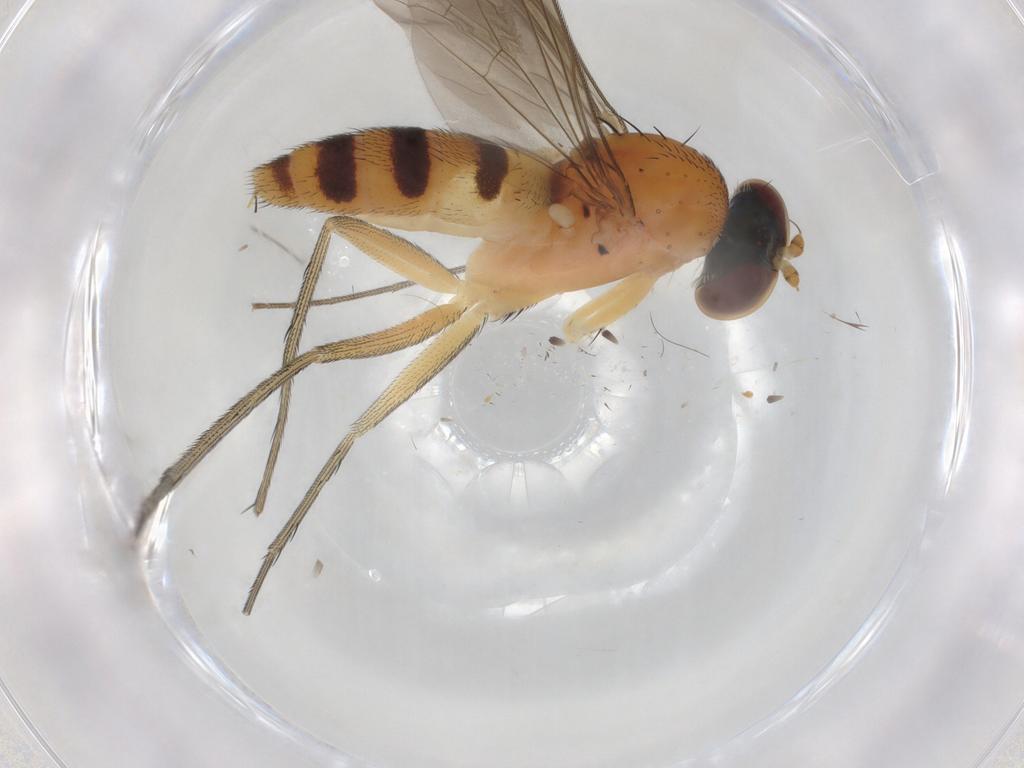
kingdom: Animalia
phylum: Arthropoda
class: Insecta
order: Diptera
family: Dolichopodidae
